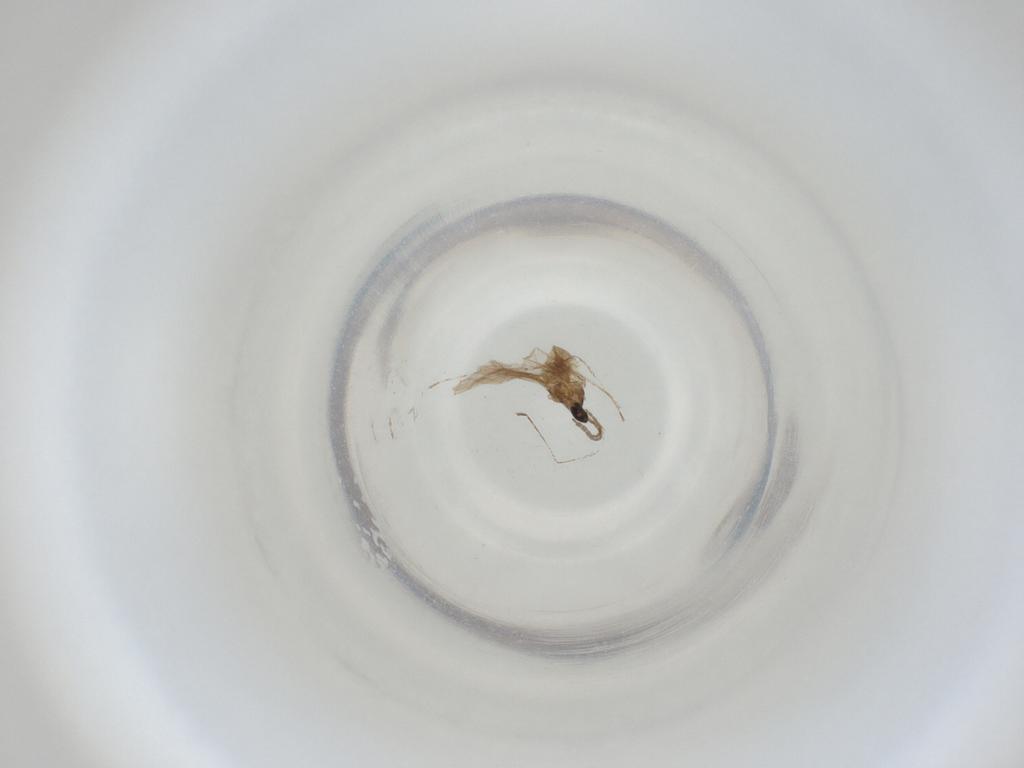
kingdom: Animalia
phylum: Arthropoda
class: Insecta
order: Diptera
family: Cecidomyiidae
